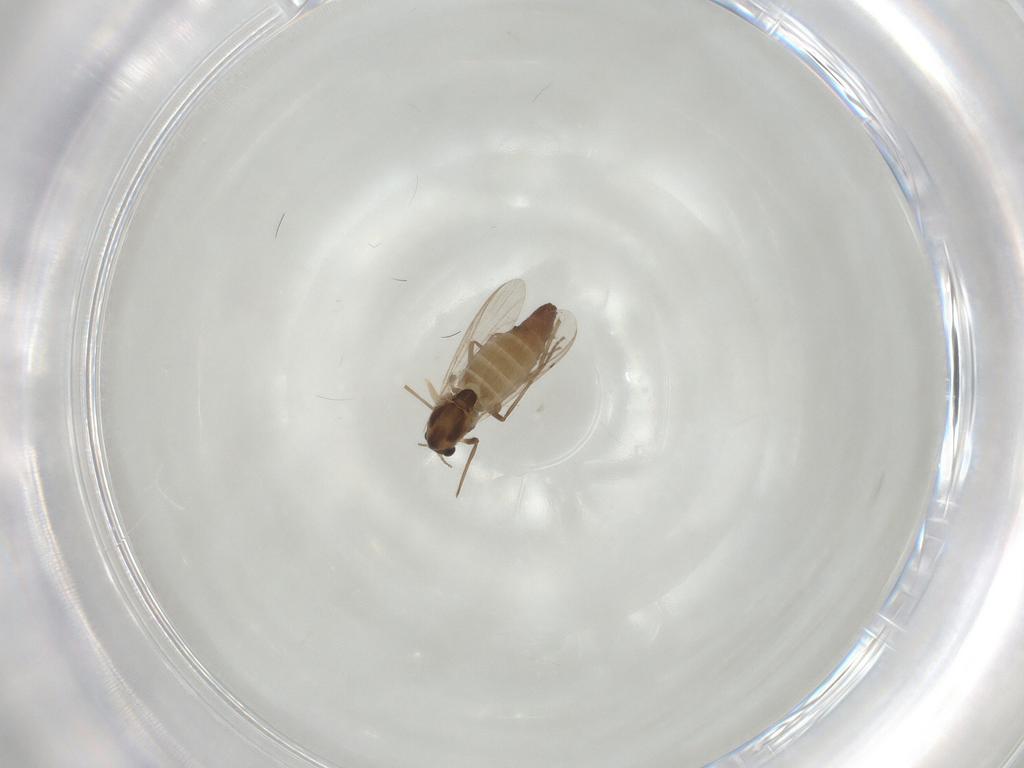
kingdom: Animalia
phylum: Arthropoda
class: Insecta
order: Diptera
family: Chironomidae
